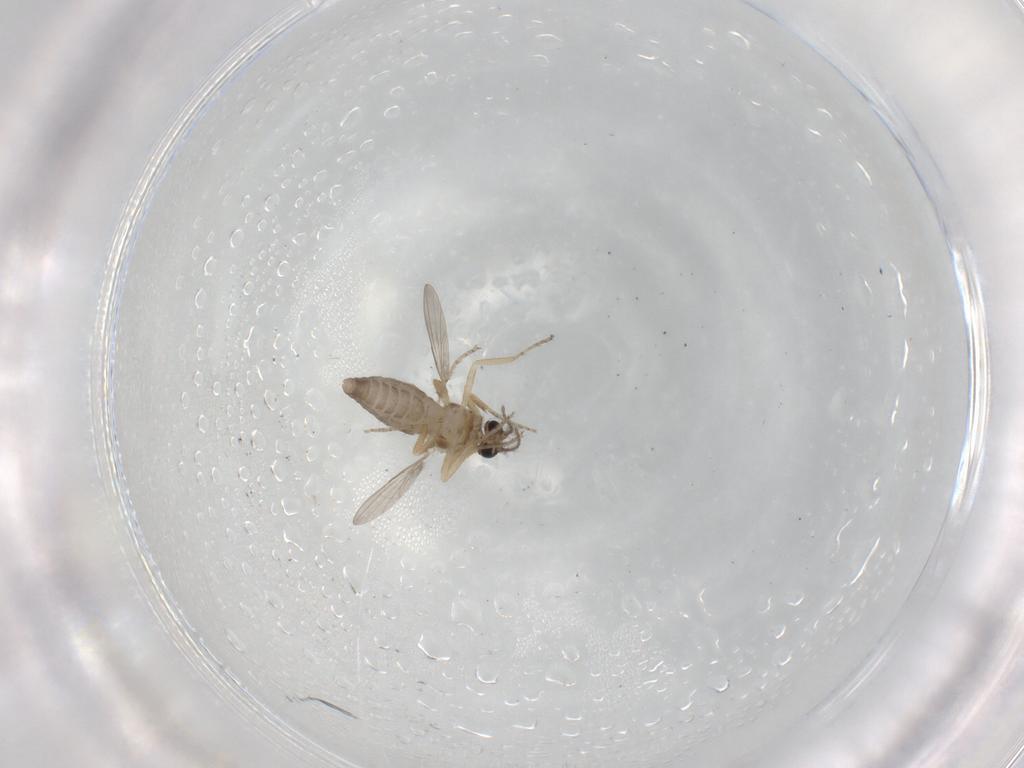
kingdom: Animalia
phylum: Arthropoda
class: Insecta
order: Diptera
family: Ceratopogonidae
